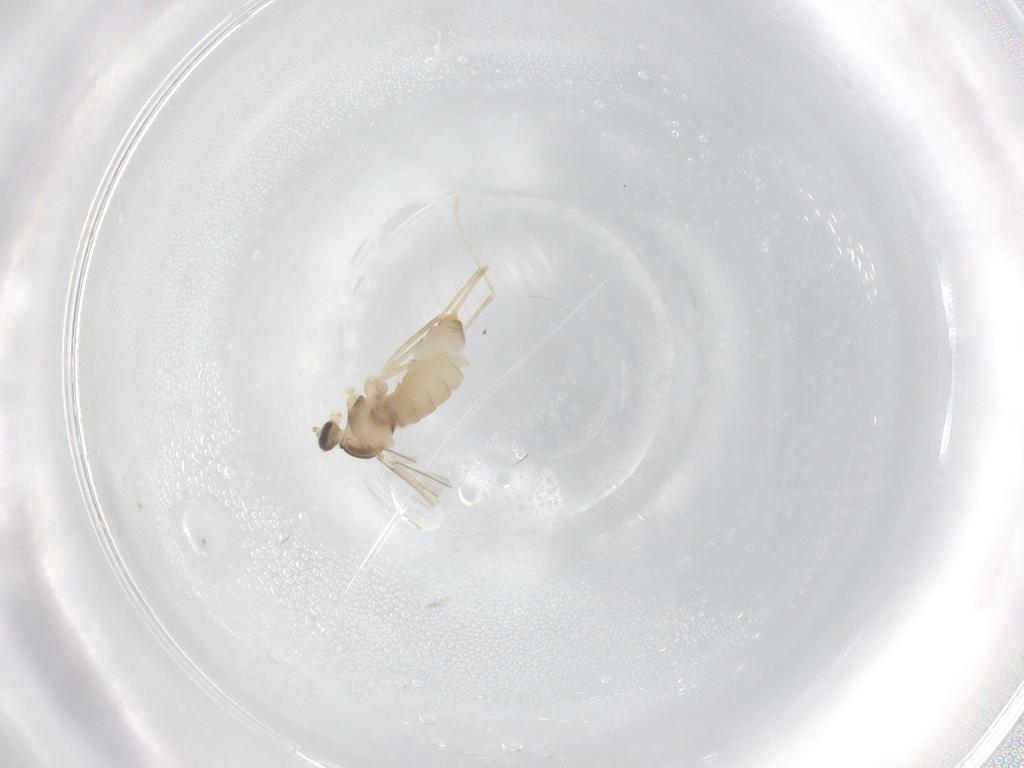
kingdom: Animalia
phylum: Arthropoda
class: Insecta
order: Diptera
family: Cecidomyiidae
